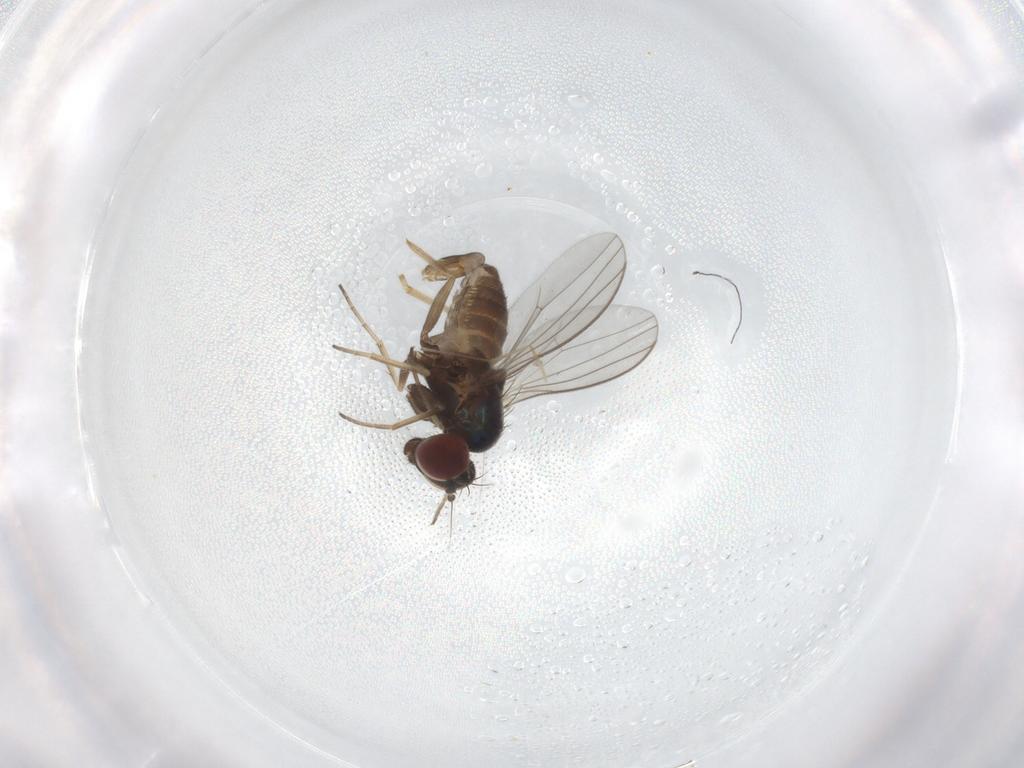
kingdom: Animalia
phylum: Arthropoda
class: Insecta
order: Diptera
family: Dolichopodidae
